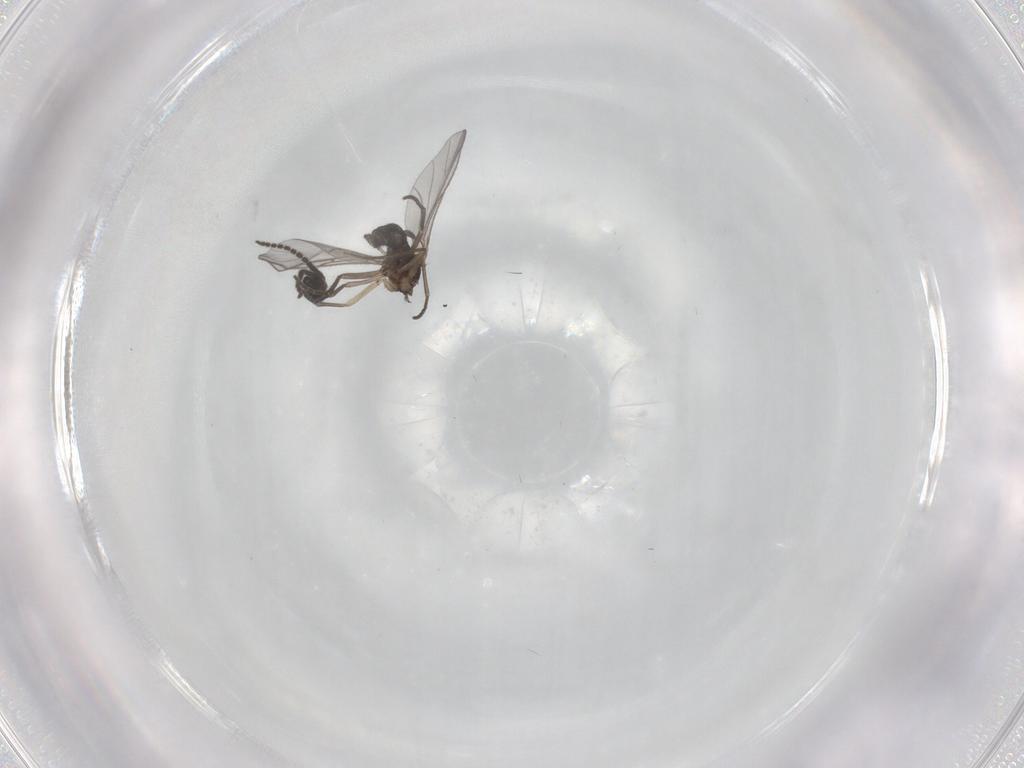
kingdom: Animalia
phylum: Arthropoda
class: Insecta
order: Diptera
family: Sciaridae
